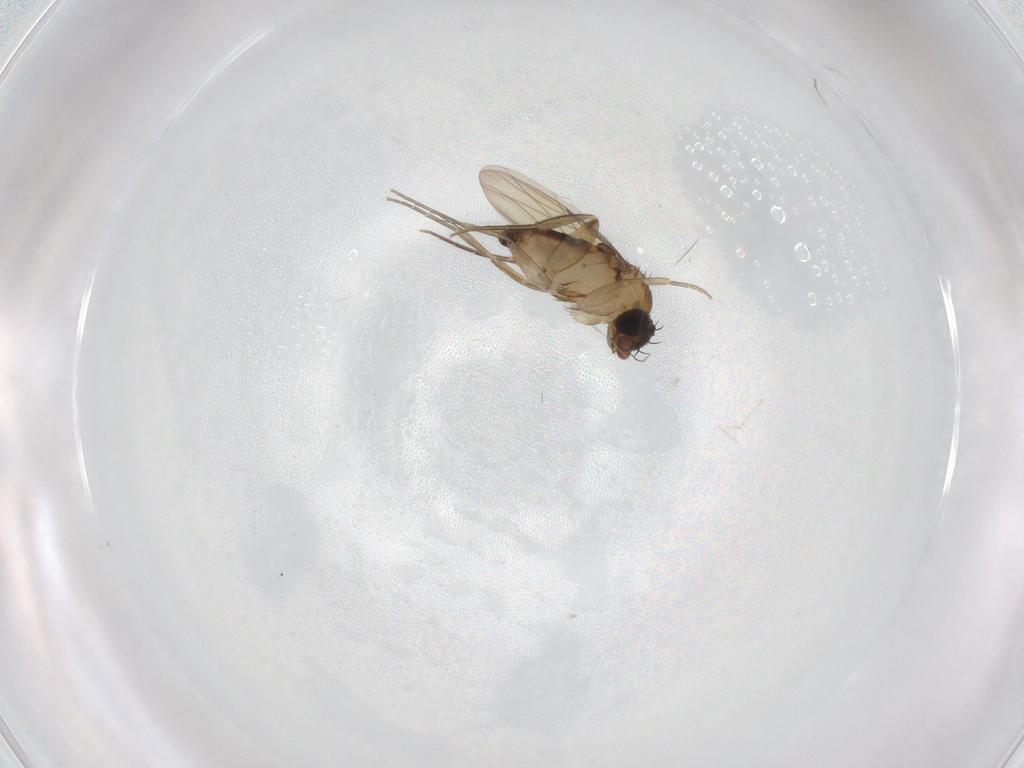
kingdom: Animalia
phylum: Arthropoda
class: Insecta
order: Diptera
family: Phoridae
